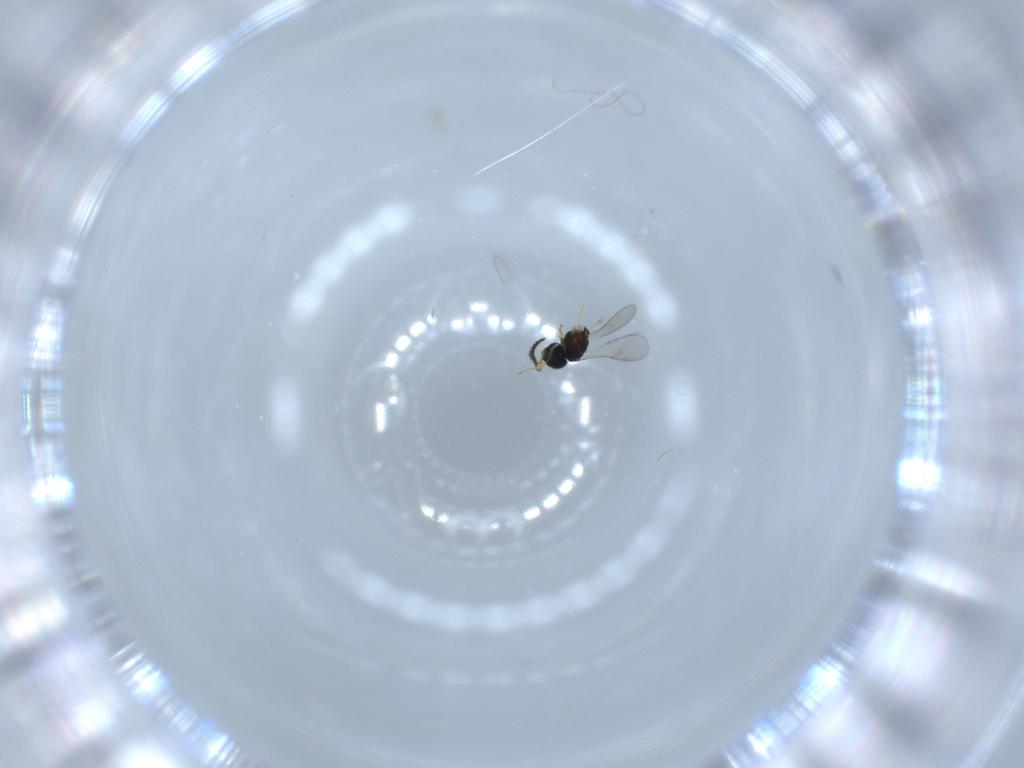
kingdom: Animalia
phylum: Arthropoda
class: Insecta
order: Hymenoptera
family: Scelionidae
